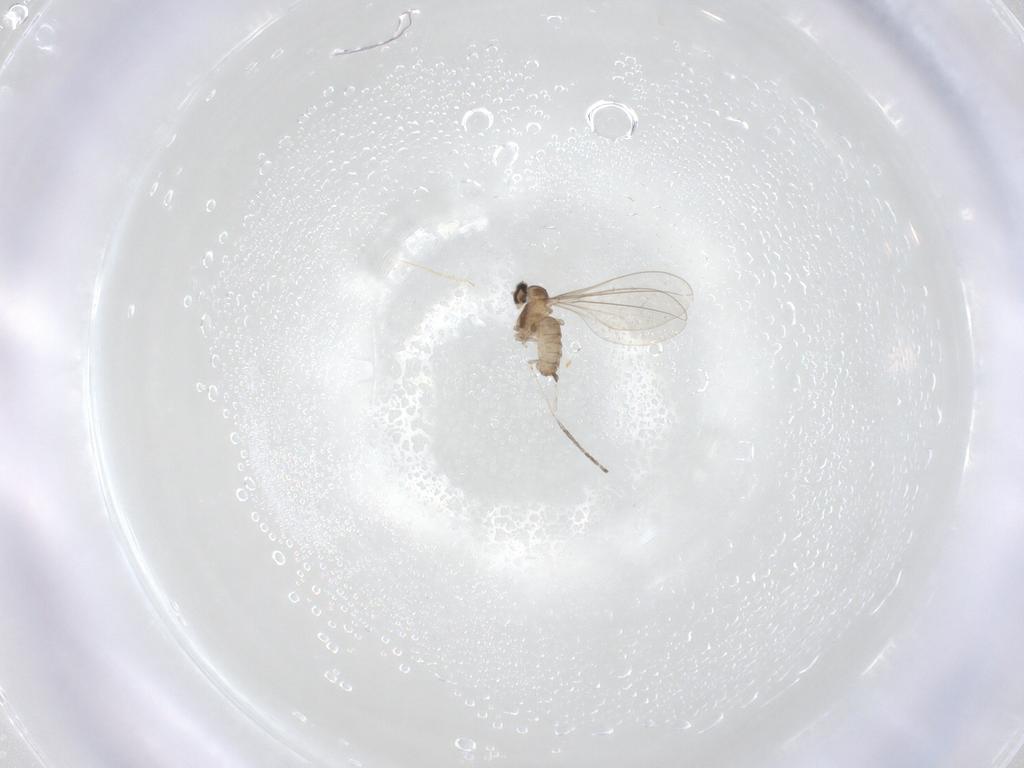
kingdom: Animalia
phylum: Arthropoda
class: Insecta
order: Diptera
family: Cecidomyiidae
